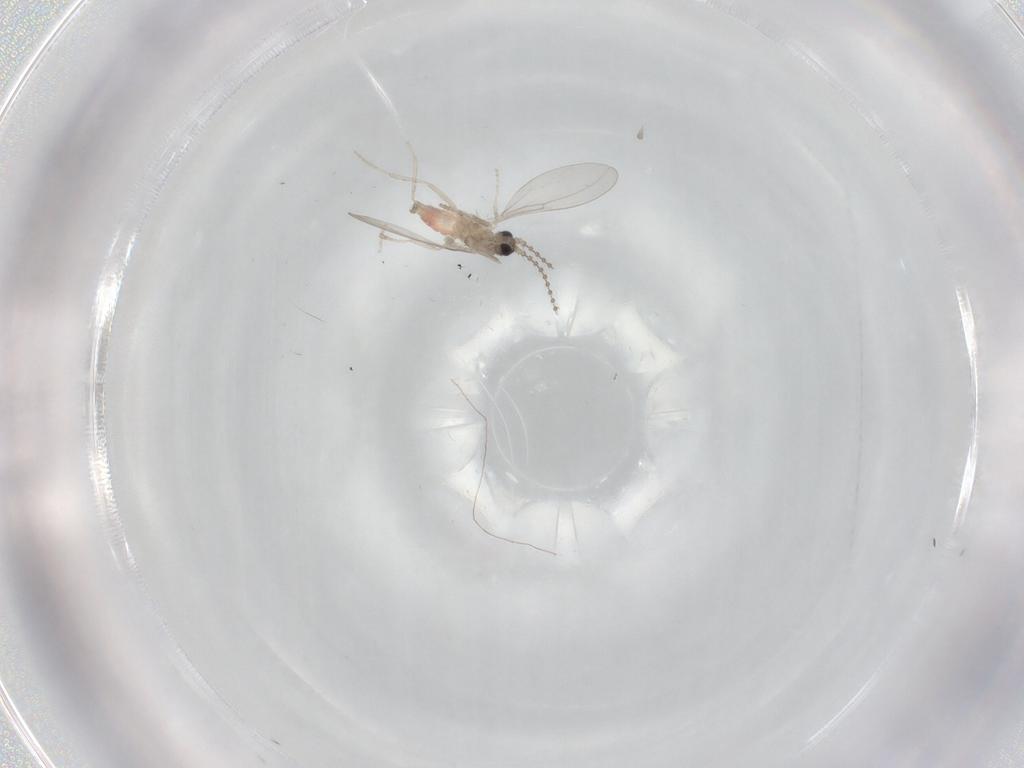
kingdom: Animalia
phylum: Arthropoda
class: Insecta
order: Diptera
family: Cecidomyiidae
